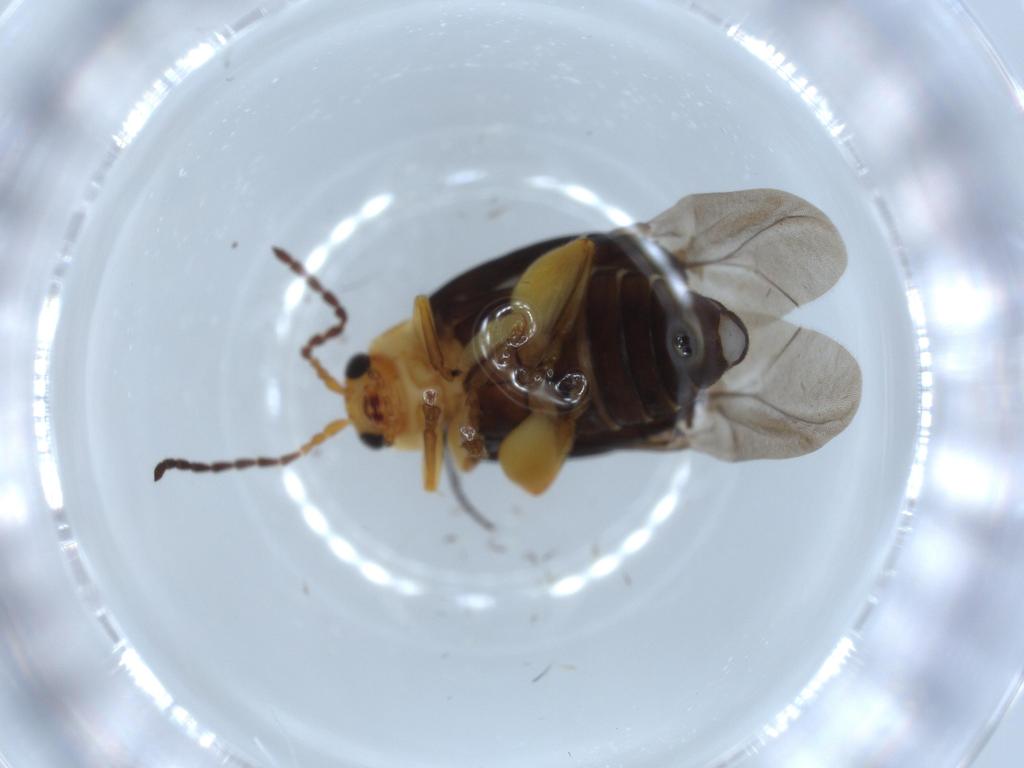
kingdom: Animalia
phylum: Arthropoda
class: Insecta
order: Coleoptera
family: Chrysomelidae
